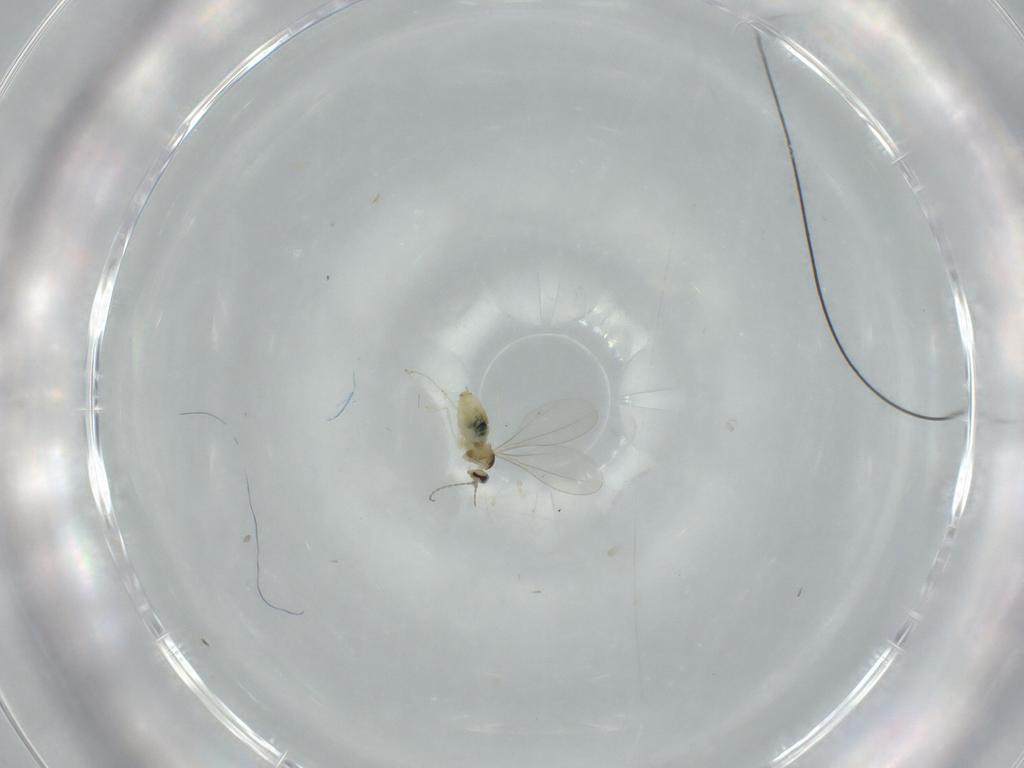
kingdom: Animalia
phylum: Arthropoda
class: Insecta
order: Diptera
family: Cecidomyiidae
